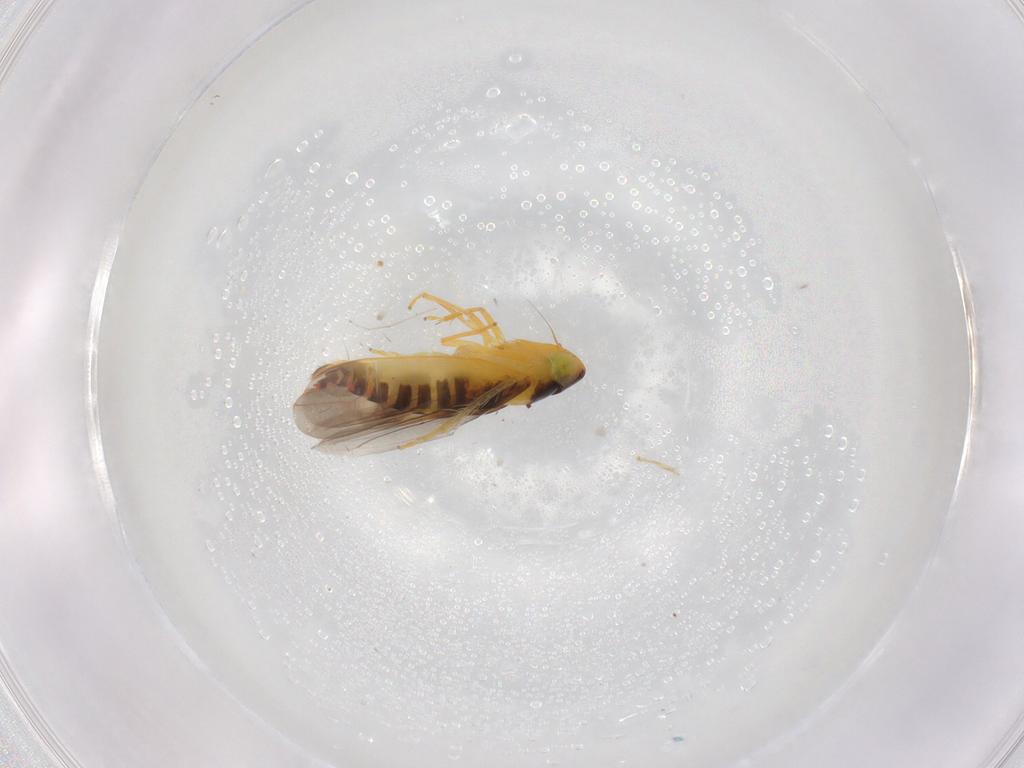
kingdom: Animalia
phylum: Arthropoda
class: Insecta
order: Hemiptera
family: Cicadellidae
